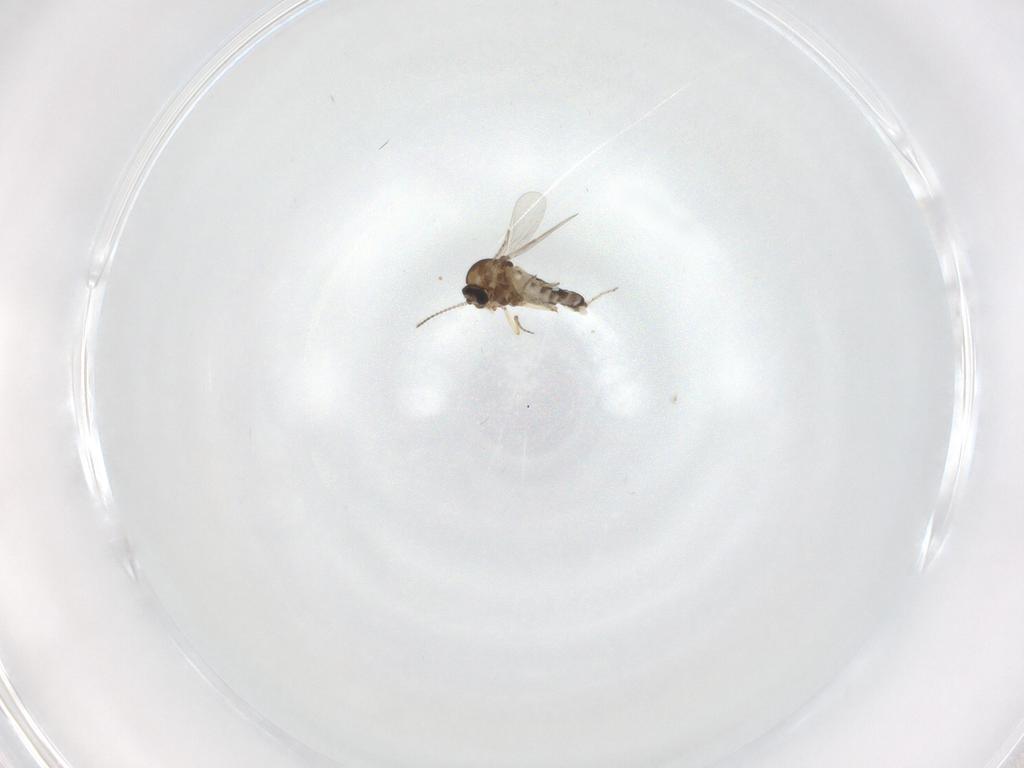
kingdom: Animalia
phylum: Arthropoda
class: Insecta
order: Diptera
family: Ceratopogonidae
